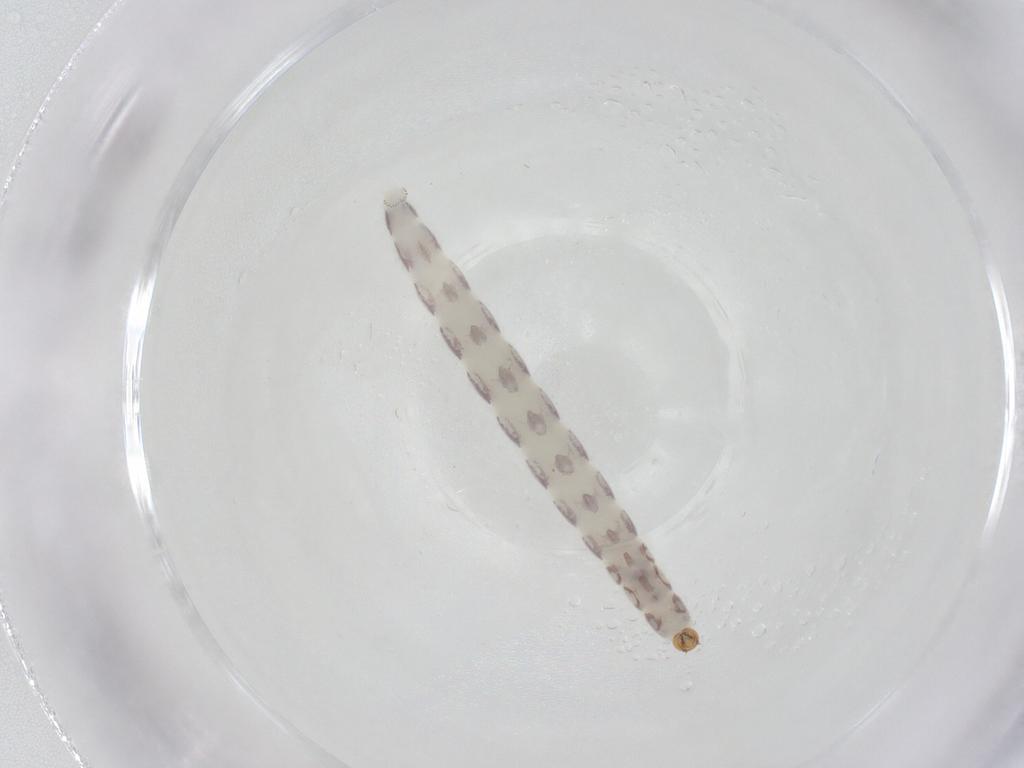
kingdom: Animalia
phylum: Arthropoda
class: Insecta
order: Diptera
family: Chironomidae
